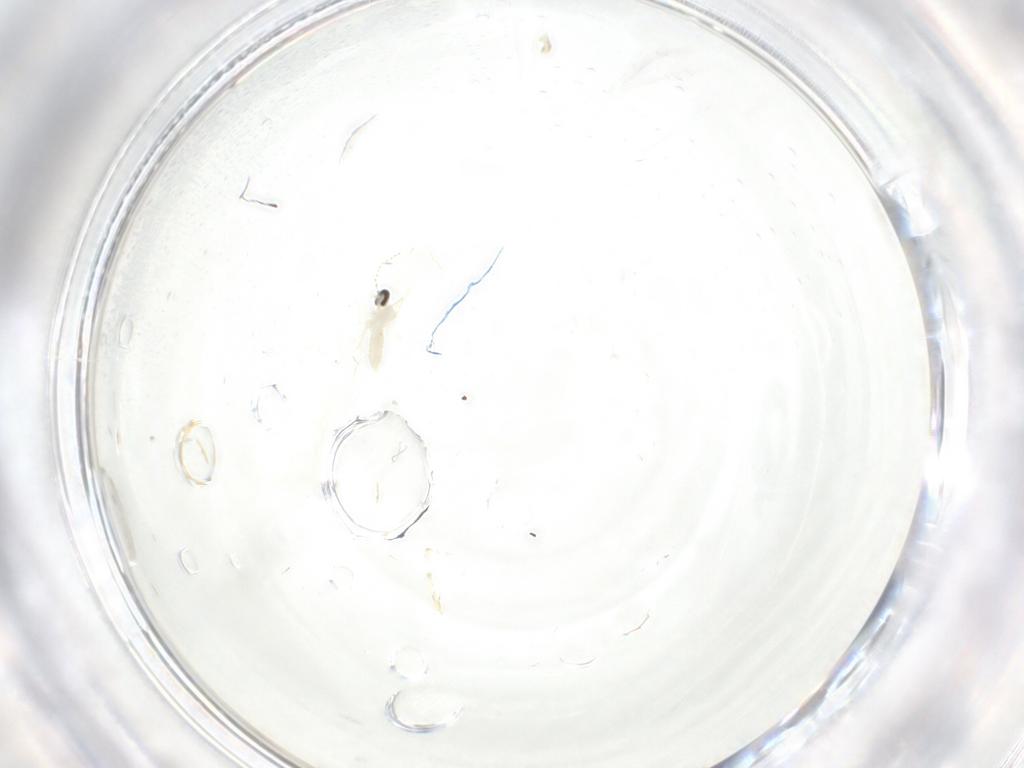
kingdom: Animalia
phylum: Arthropoda
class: Insecta
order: Diptera
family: Cecidomyiidae
